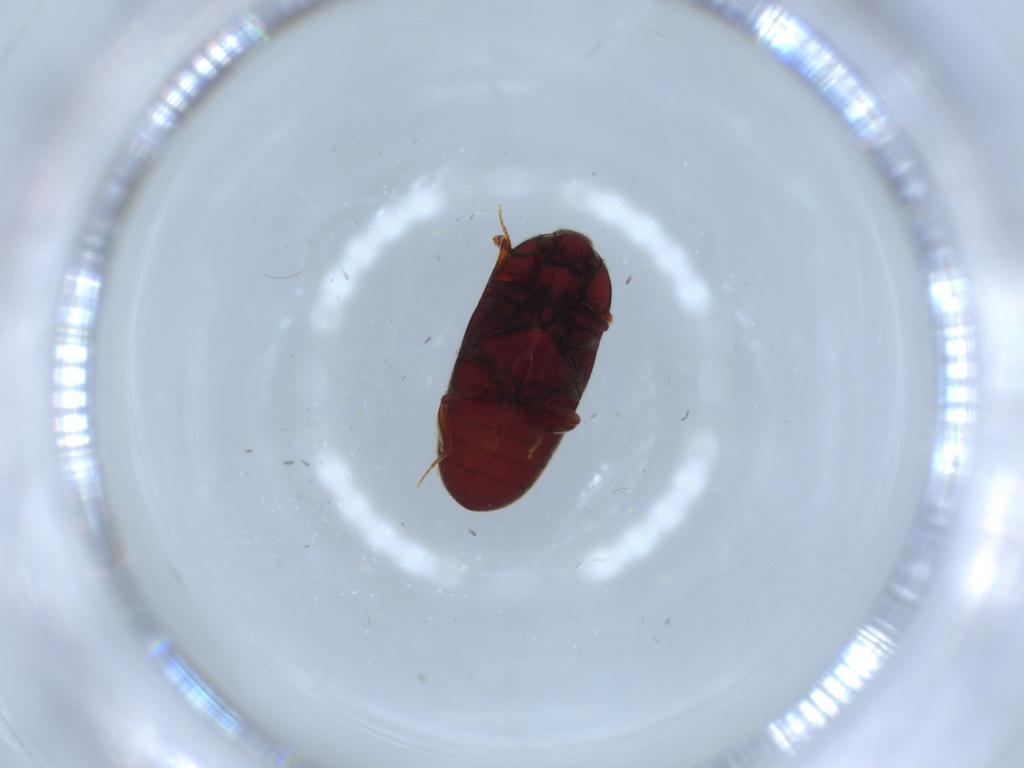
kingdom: Animalia
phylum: Arthropoda
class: Insecta
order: Coleoptera
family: Throscidae
